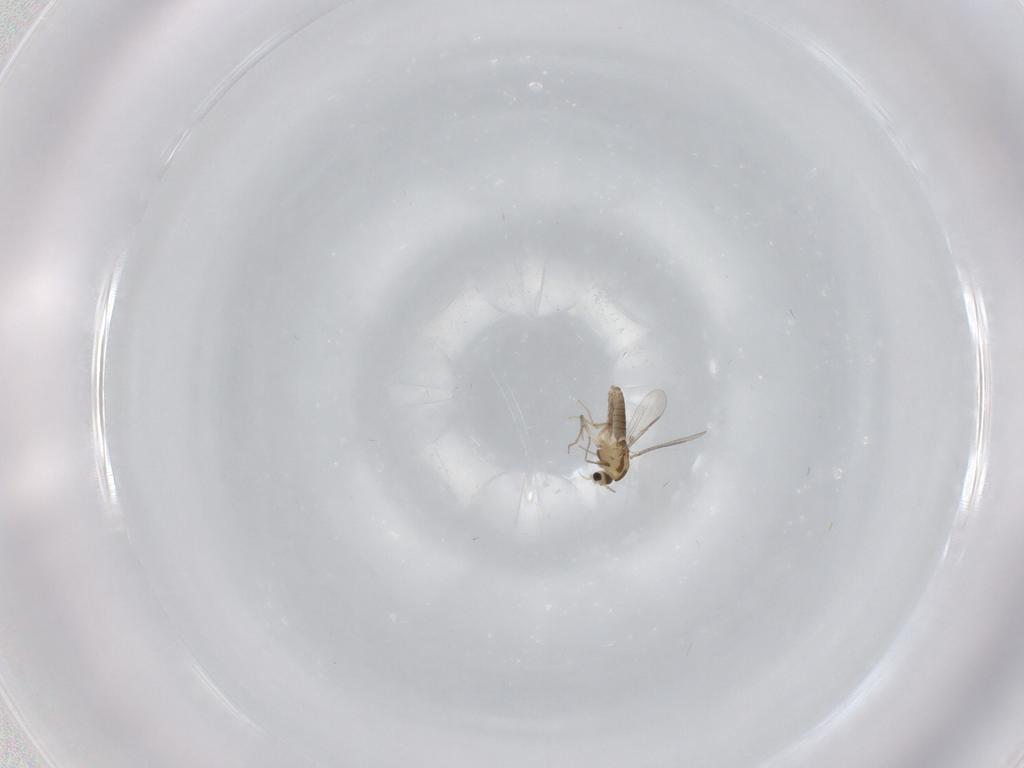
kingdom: Animalia
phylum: Arthropoda
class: Insecta
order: Diptera
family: Chironomidae
